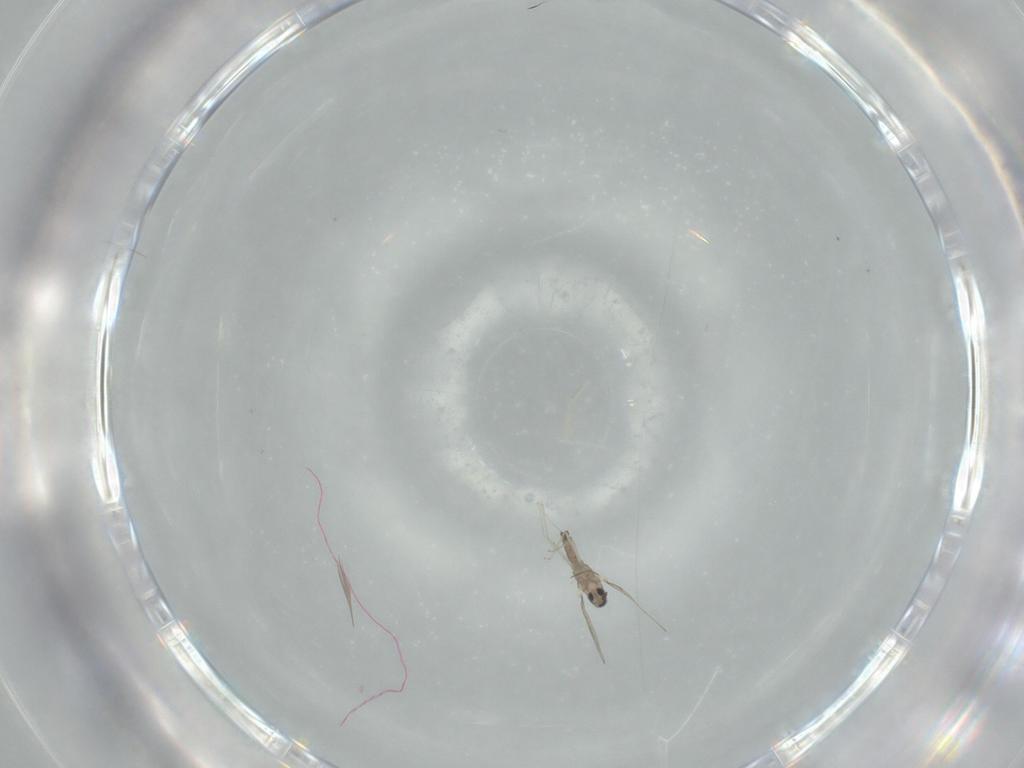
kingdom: Animalia
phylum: Arthropoda
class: Insecta
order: Diptera
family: Cecidomyiidae
